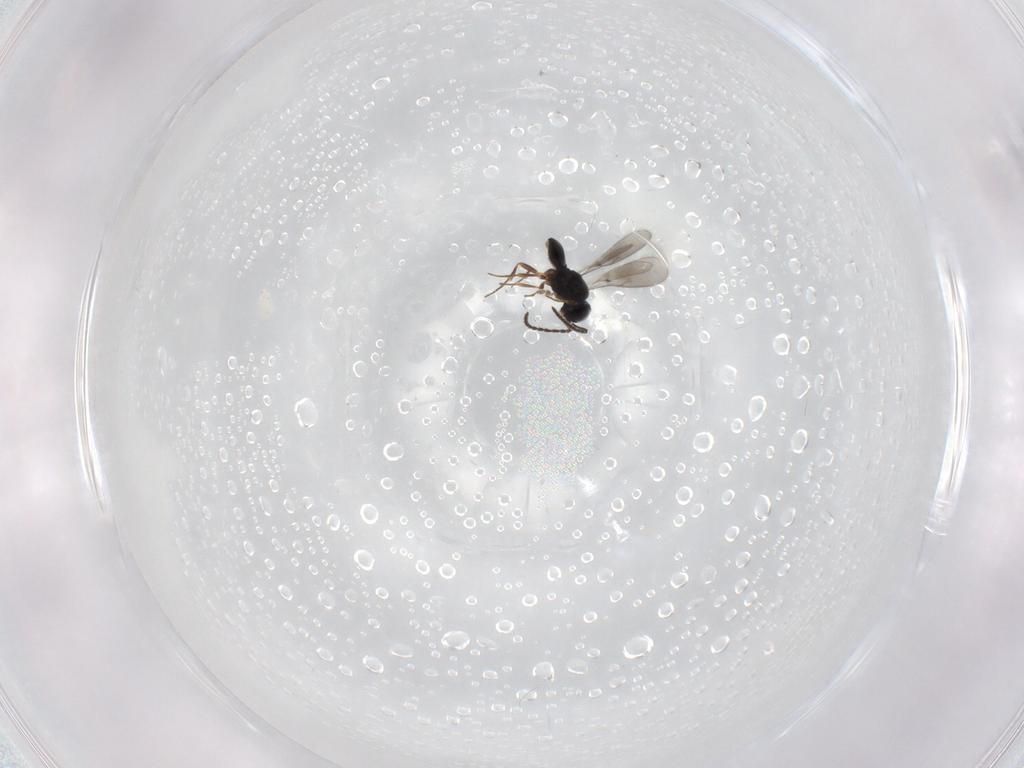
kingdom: Animalia
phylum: Arthropoda
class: Insecta
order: Hymenoptera
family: Scelionidae
